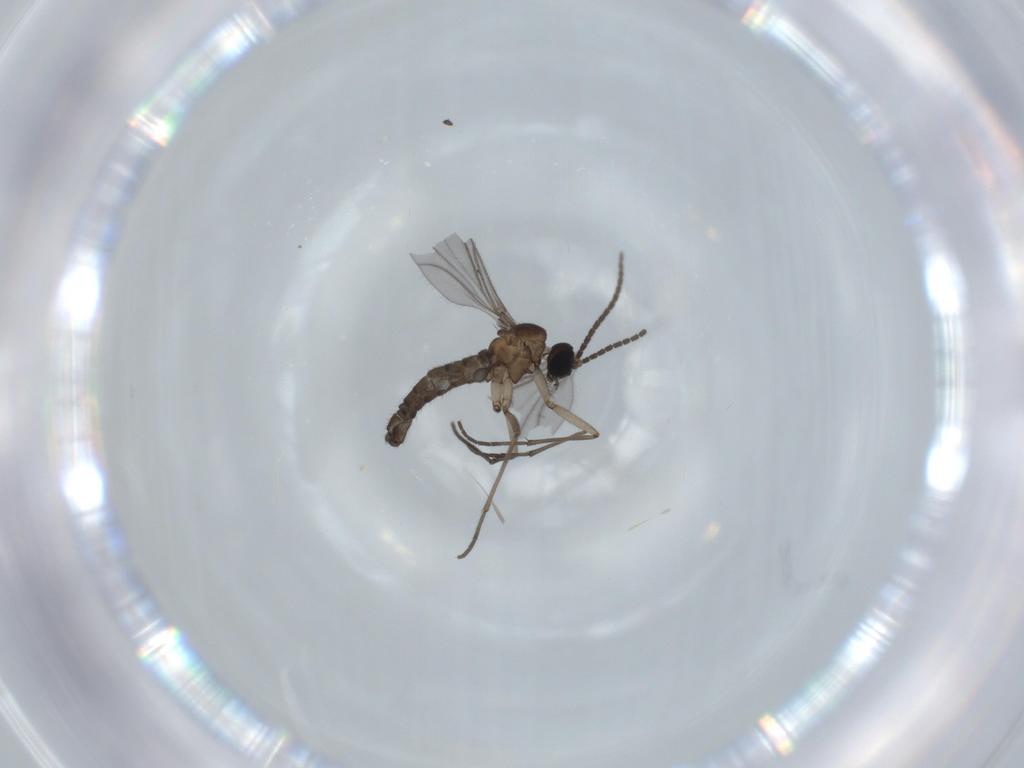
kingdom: Animalia
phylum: Arthropoda
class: Insecta
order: Diptera
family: Sciaridae
